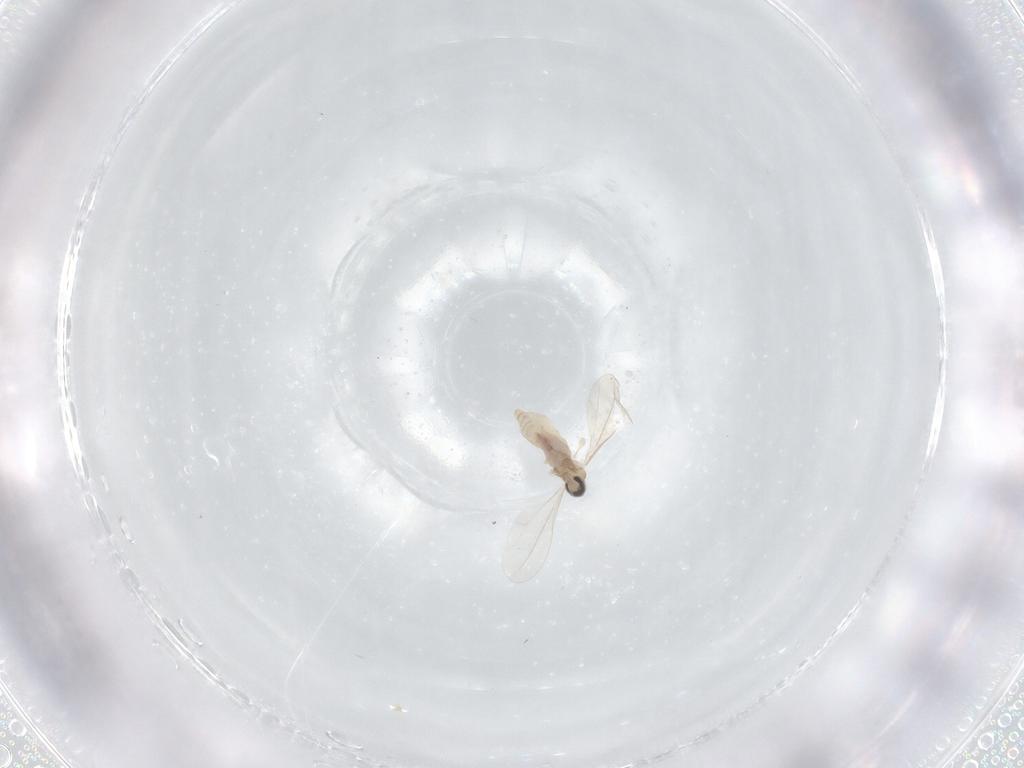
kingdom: Animalia
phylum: Arthropoda
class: Insecta
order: Diptera
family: Cecidomyiidae
